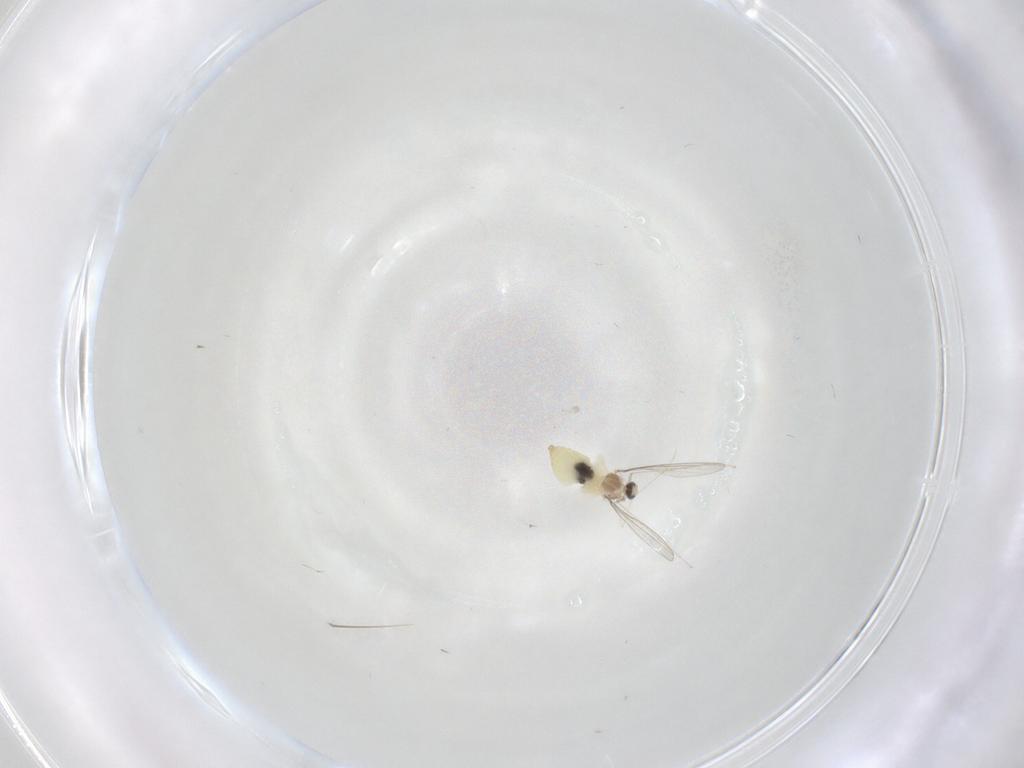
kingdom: Animalia
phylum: Arthropoda
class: Insecta
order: Diptera
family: Cecidomyiidae
